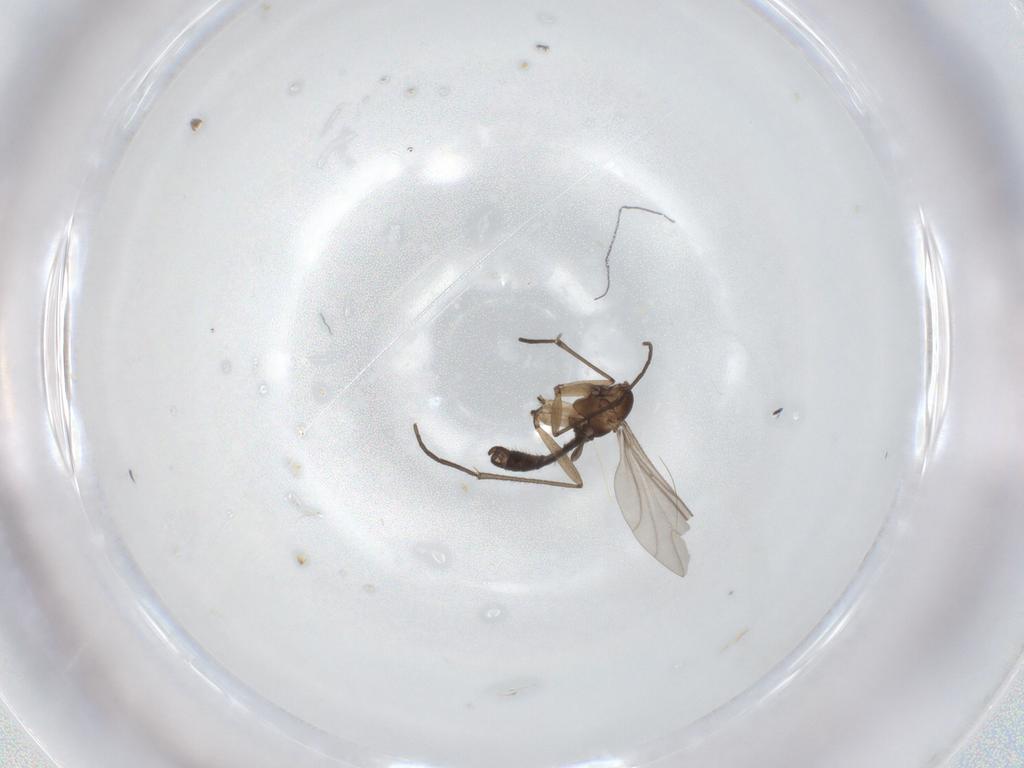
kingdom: Animalia
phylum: Arthropoda
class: Insecta
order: Diptera
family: Sciaridae
